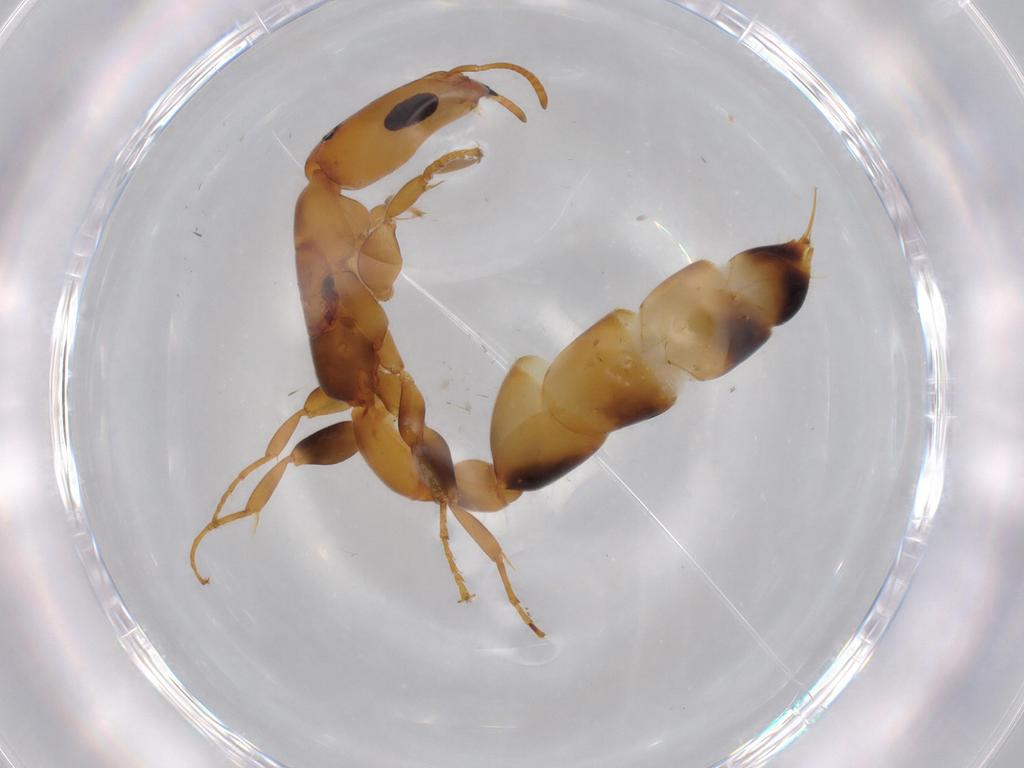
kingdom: Animalia
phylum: Arthropoda
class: Insecta
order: Hymenoptera
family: Formicidae
